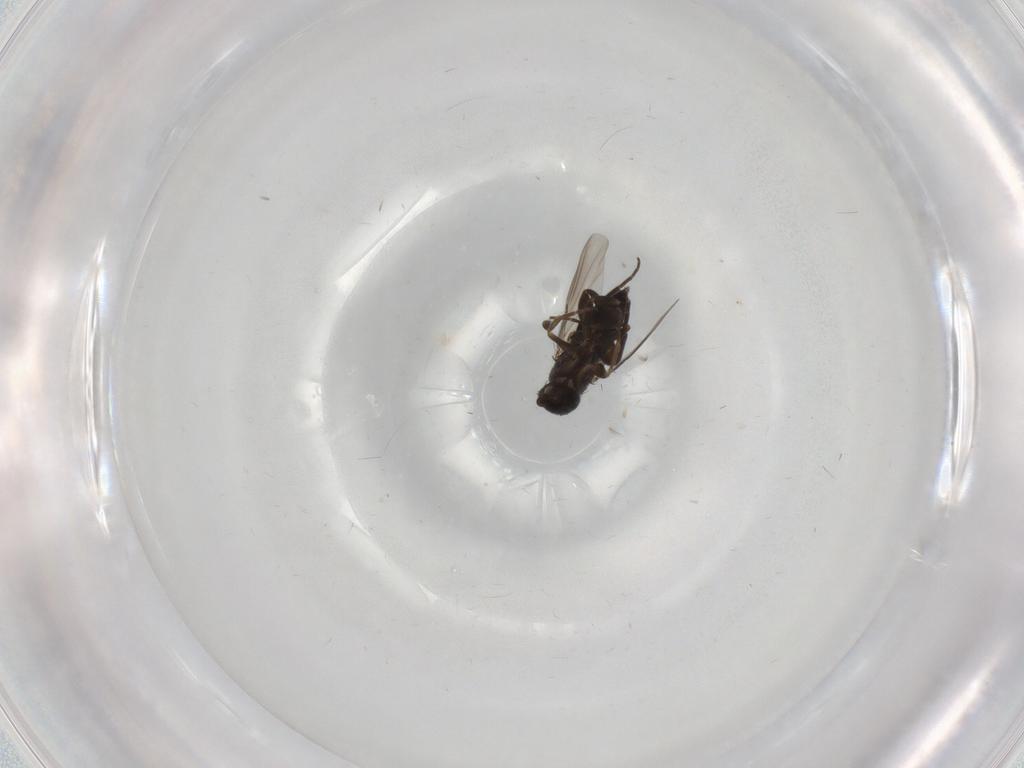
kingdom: Animalia
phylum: Arthropoda
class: Insecta
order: Diptera
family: Phoridae
